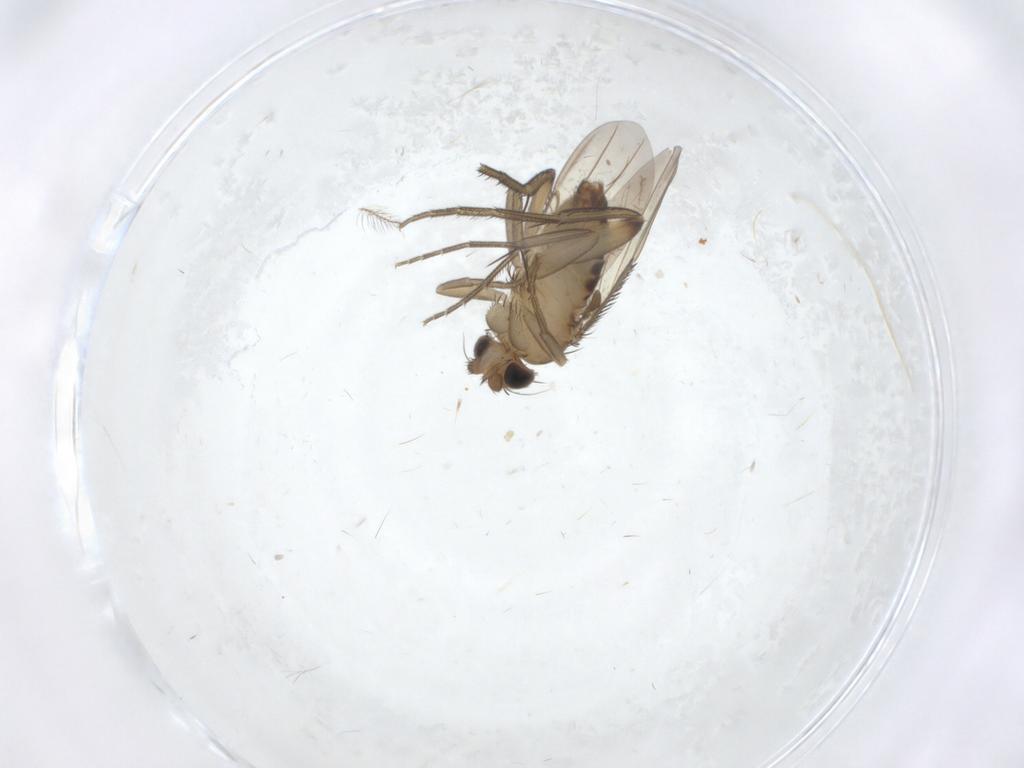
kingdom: Animalia
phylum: Arthropoda
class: Insecta
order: Diptera
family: Phoridae
